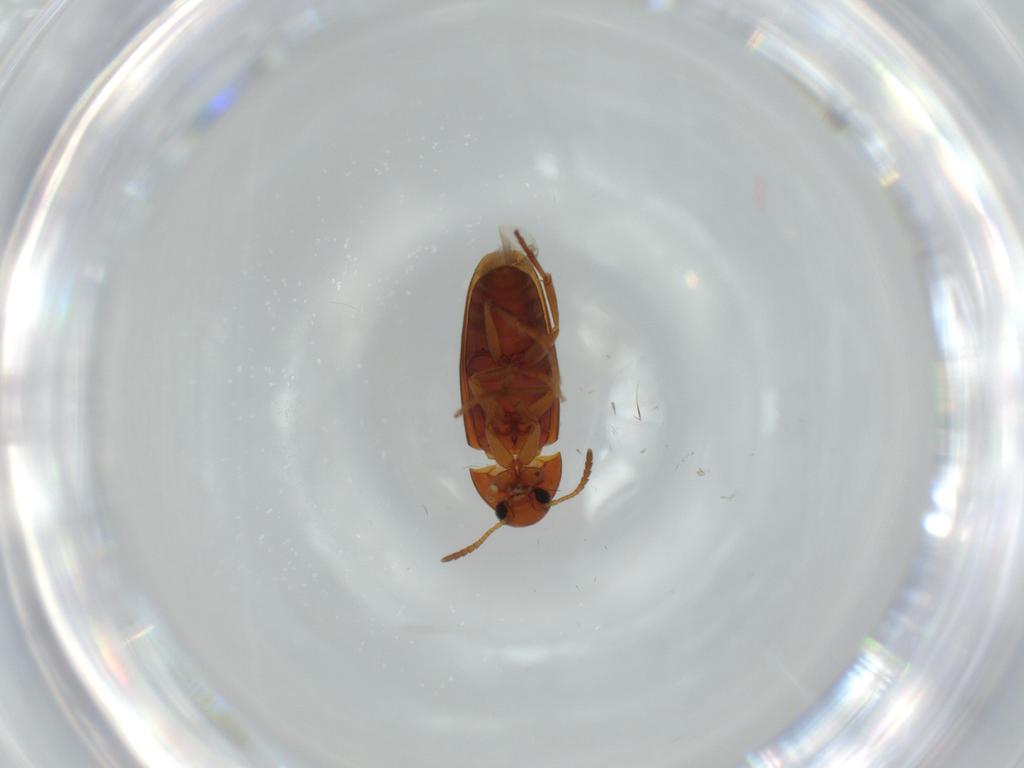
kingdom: Animalia
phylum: Arthropoda
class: Insecta
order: Coleoptera
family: Scraptiidae
